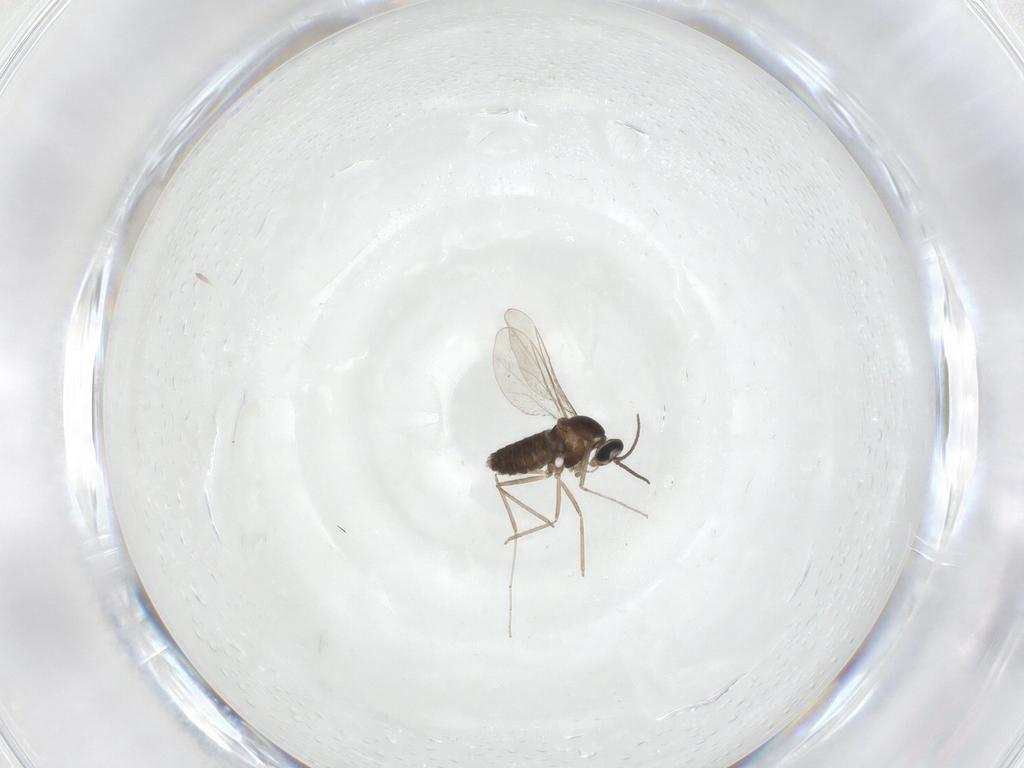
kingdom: Animalia
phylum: Arthropoda
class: Insecta
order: Diptera
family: Cecidomyiidae
